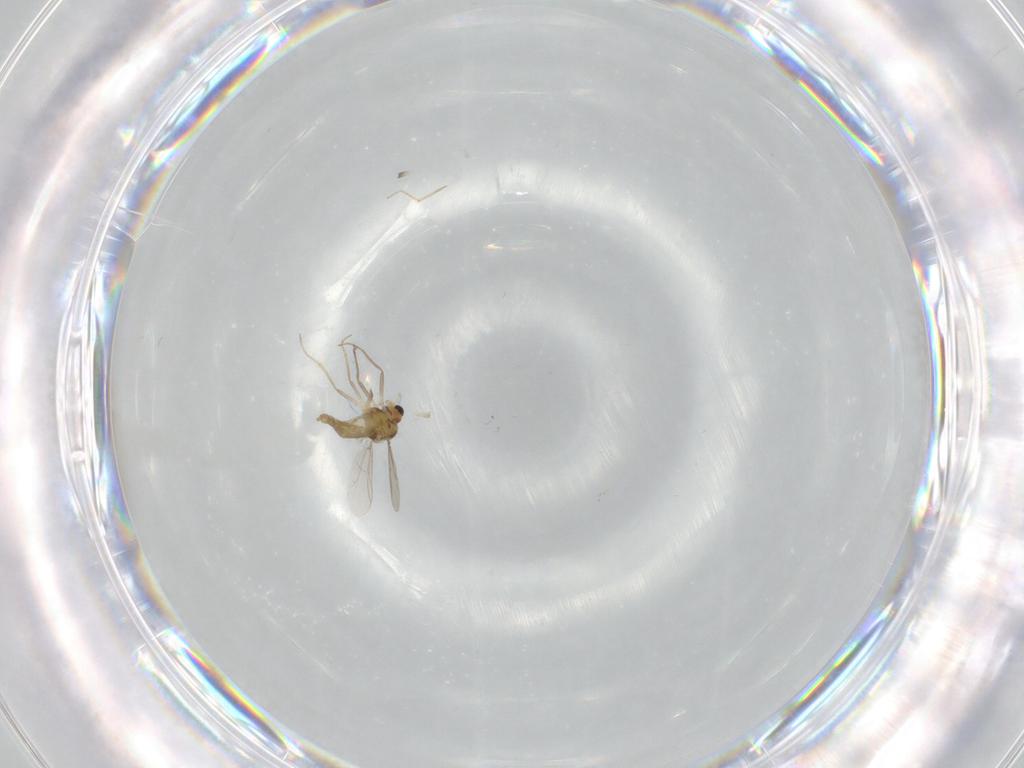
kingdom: Animalia
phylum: Arthropoda
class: Insecta
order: Diptera
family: Chironomidae
